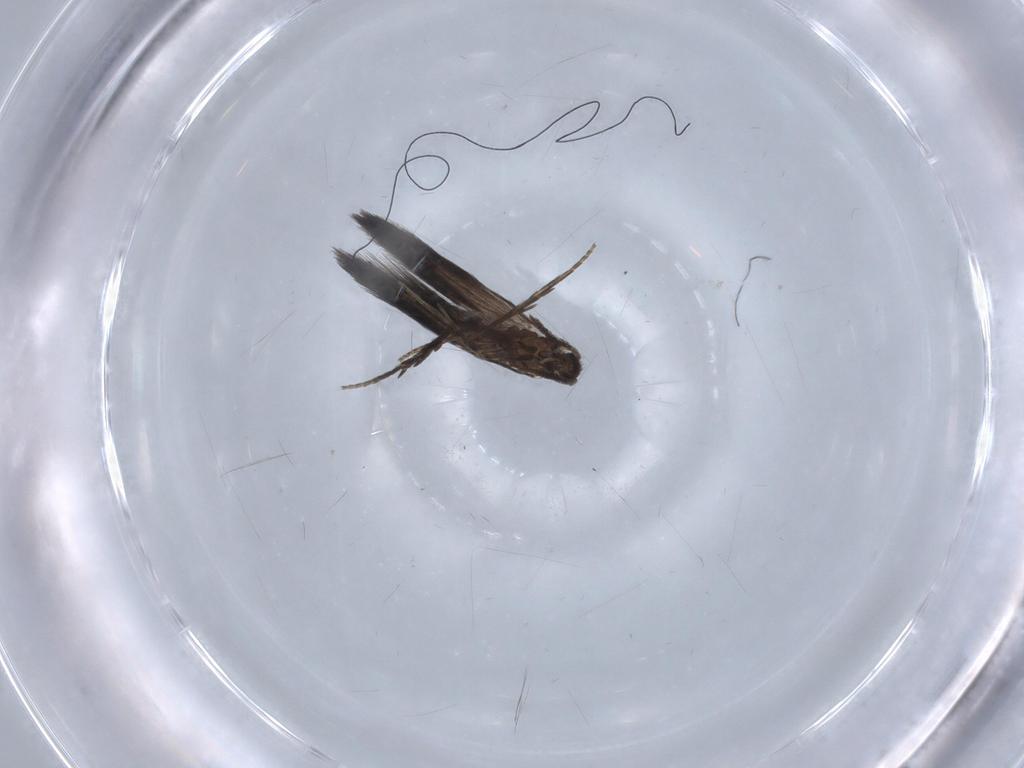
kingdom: Animalia
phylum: Arthropoda
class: Insecta
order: Trichoptera
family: Hydroptilidae
